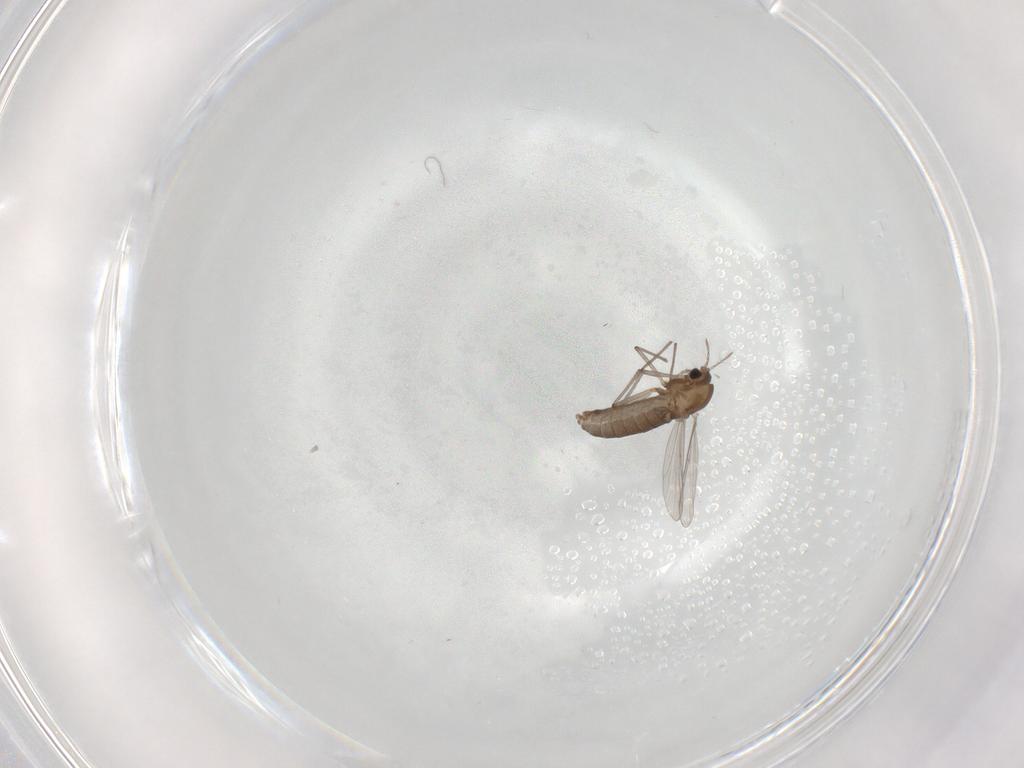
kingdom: Animalia
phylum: Arthropoda
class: Insecta
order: Diptera
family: Chironomidae
